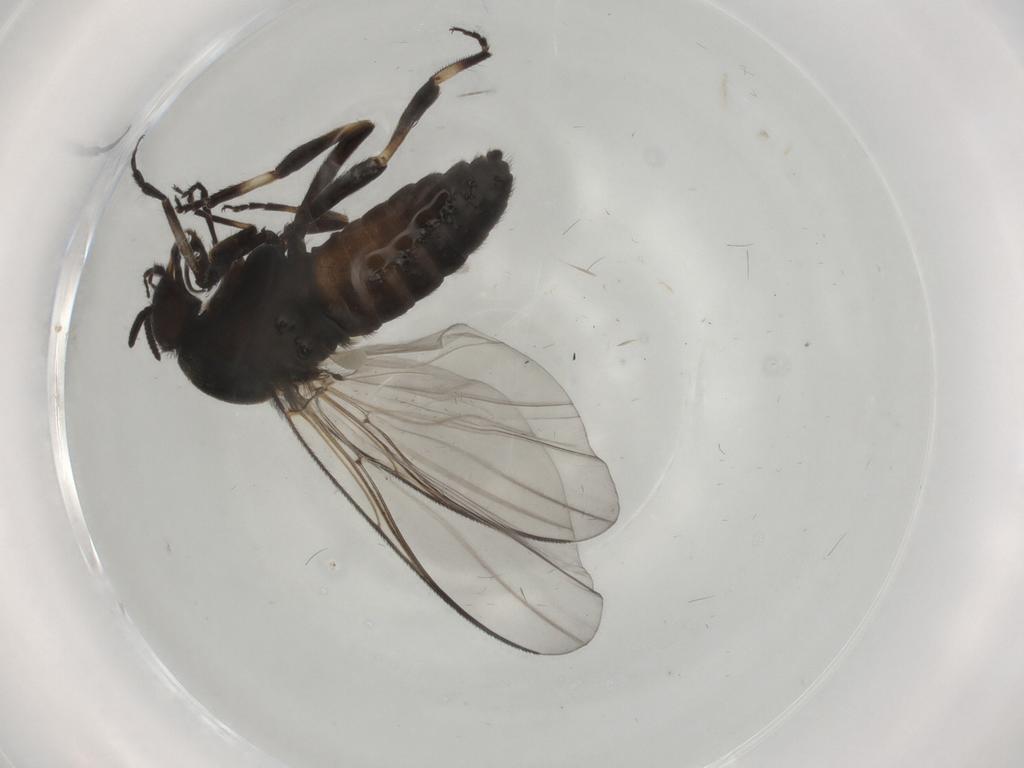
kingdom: Animalia
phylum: Arthropoda
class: Insecta
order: Diptera
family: Simuliidae
